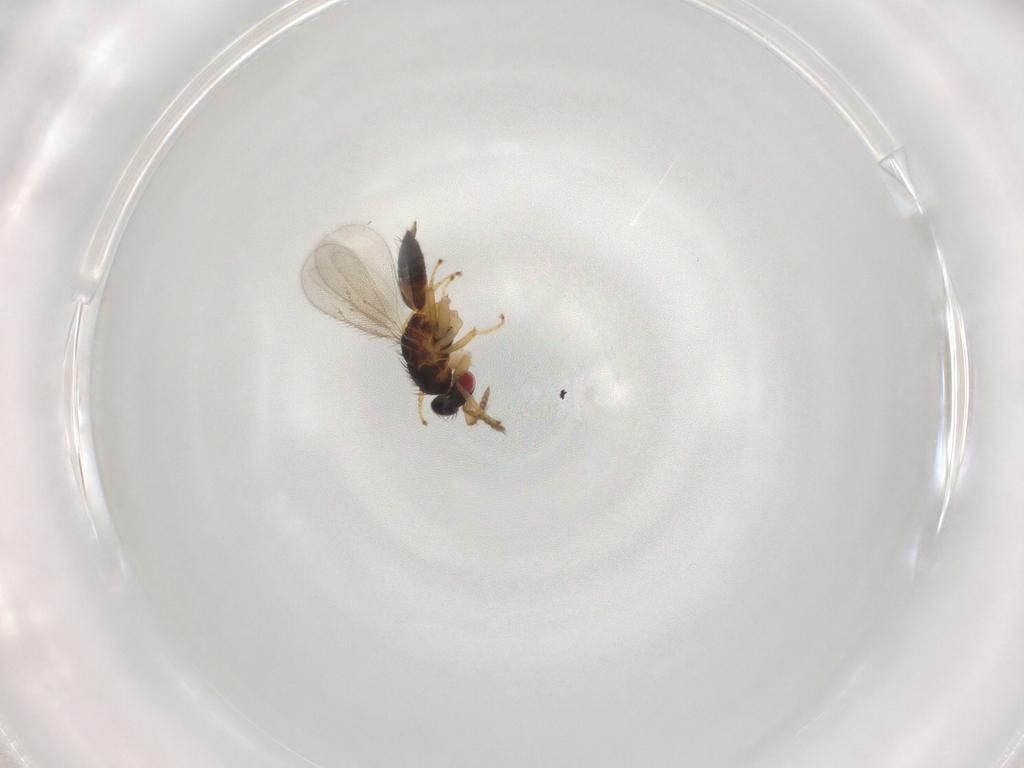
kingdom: Animalia
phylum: Arthropoda
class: Insecta
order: Hymenoptera
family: Eulophidae
